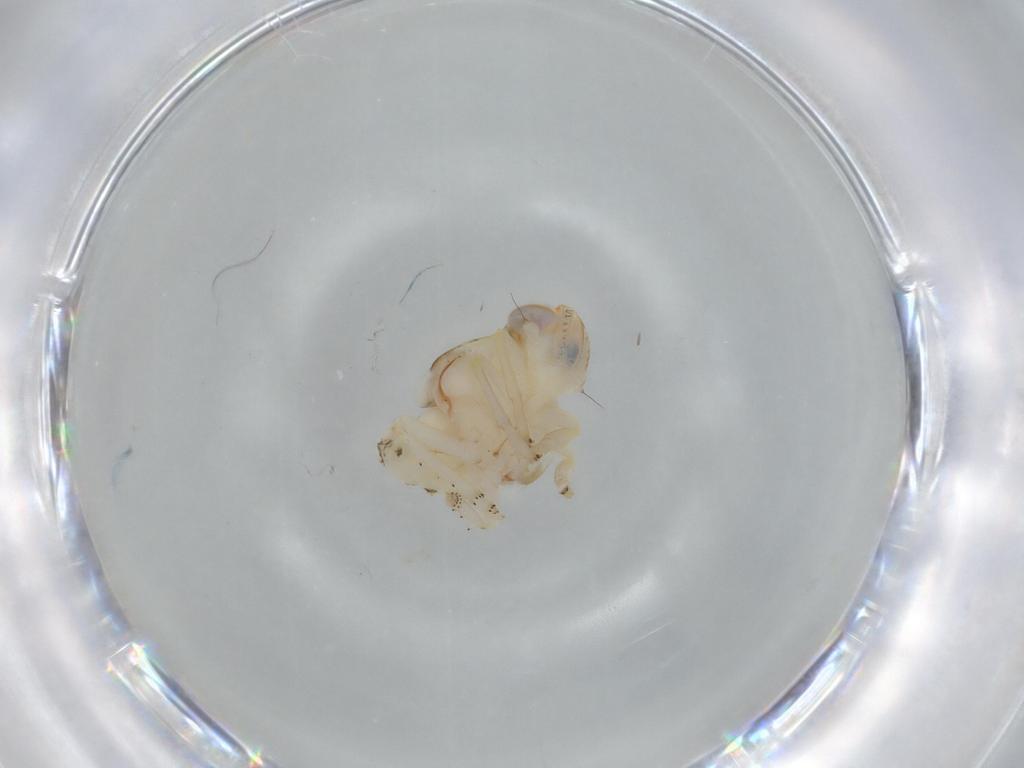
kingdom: Animalia
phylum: Arthropoda
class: Insecta
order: Hemiptera
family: Nogodinidae
